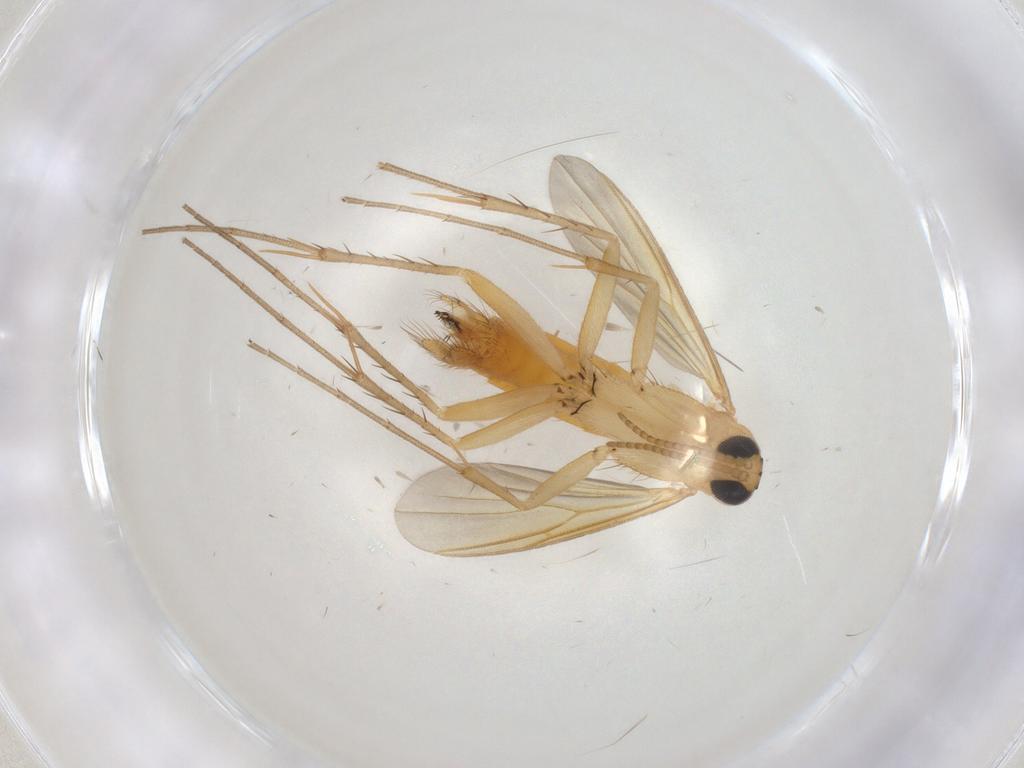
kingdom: Animalia
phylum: Arthropoda
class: Insecta
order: Diptera
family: Mycetophilidae
